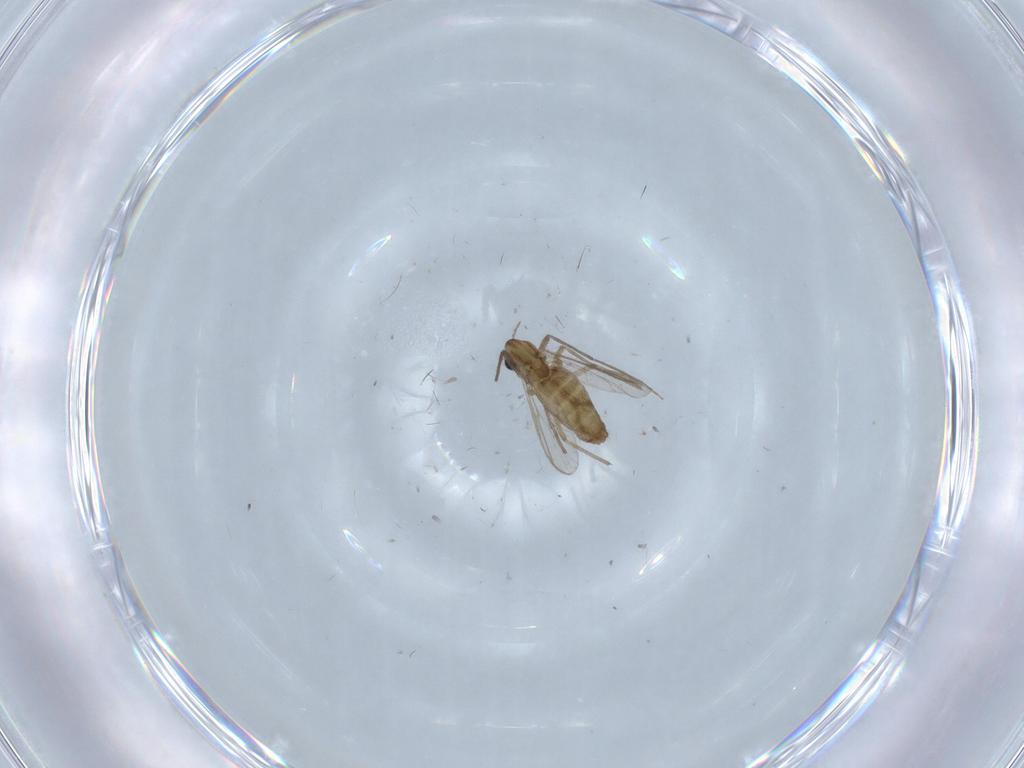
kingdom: Animalia
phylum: Arthropoda
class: Insecta
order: Diptera
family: Chironomidae
